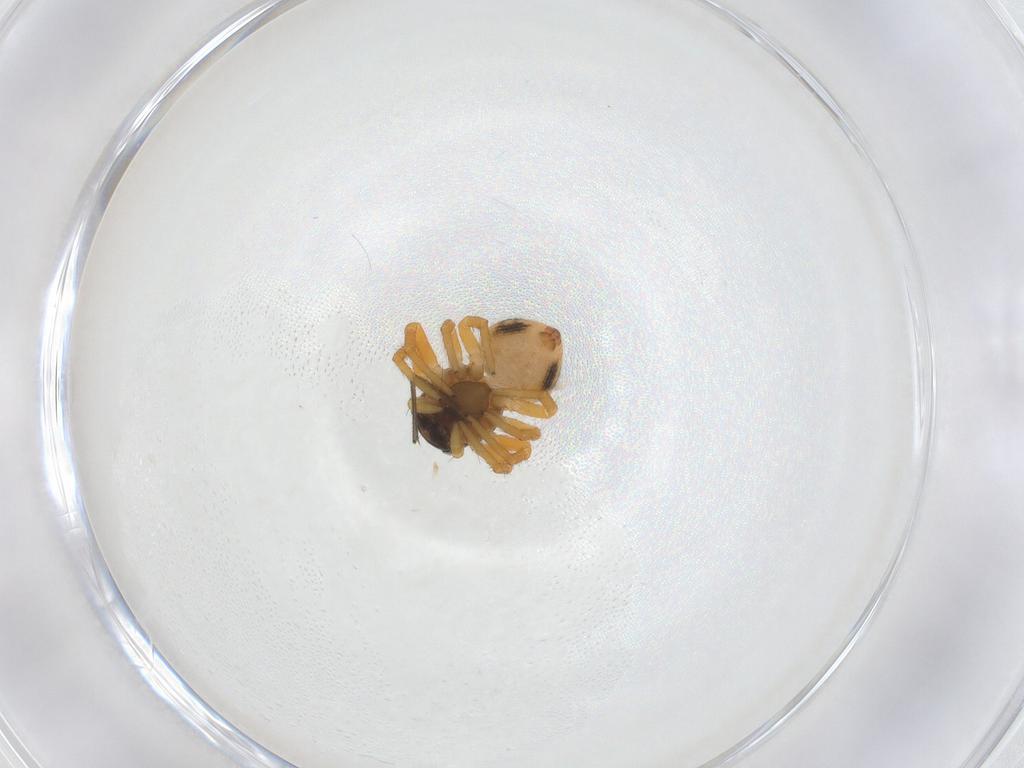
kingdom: Animalia
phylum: Arthropoda
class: Arachnida
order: Araneae
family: Thomisidae
